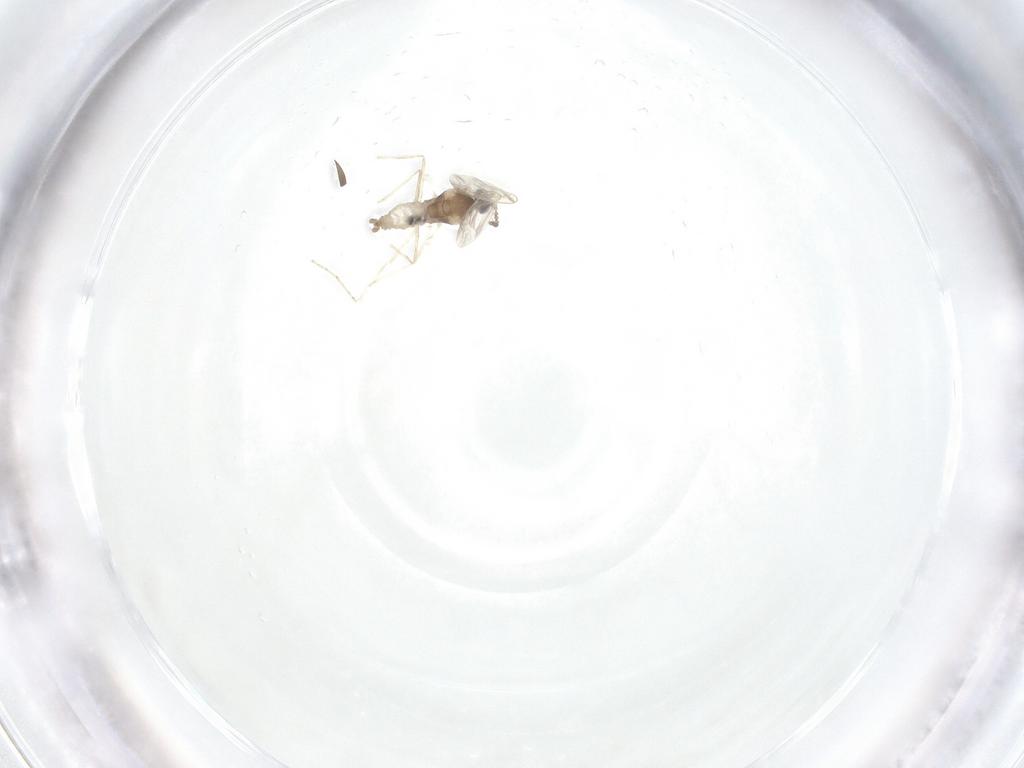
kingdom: Animalia
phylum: Arthropoda
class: Insecta
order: Diptera
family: Cecidomyiidae
